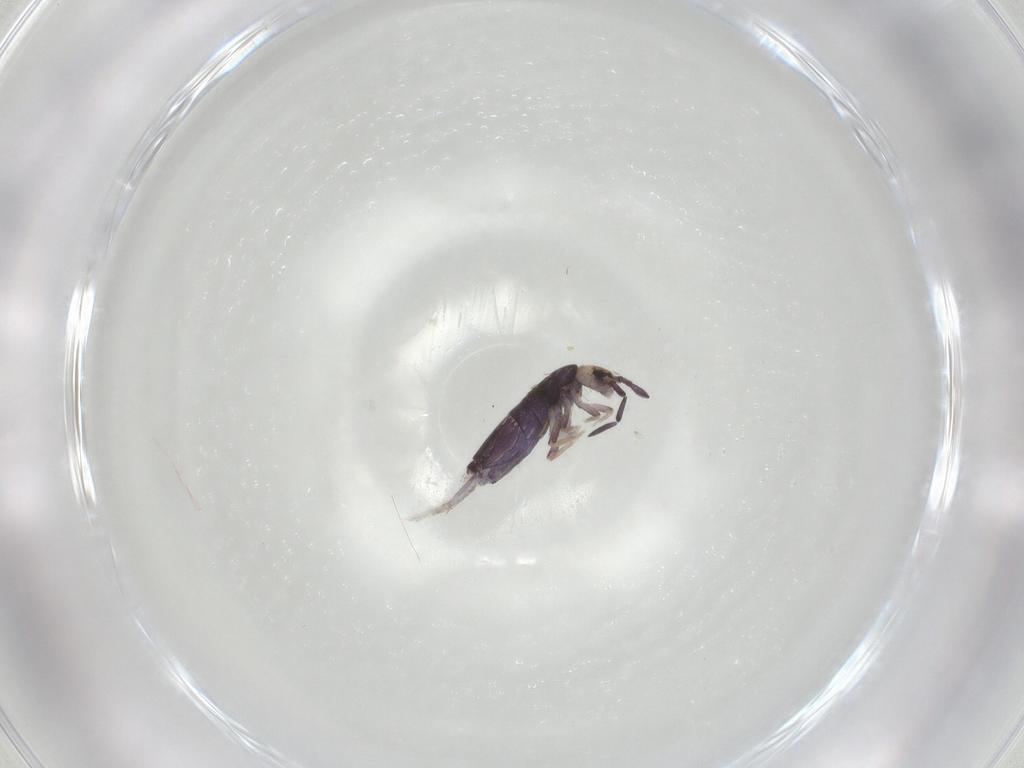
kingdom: Animalia
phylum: Arthropoda
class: Collembola
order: Entomobryomorpha
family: Entomobryidae
